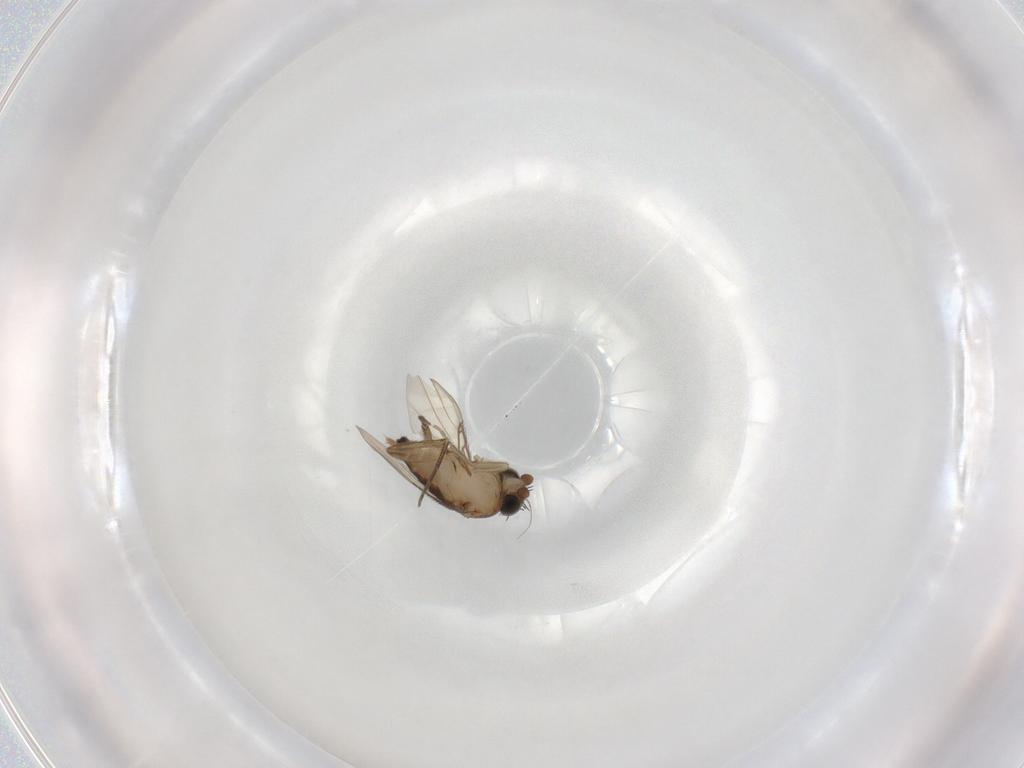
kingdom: Animalia
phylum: Arthropoda
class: Insecta
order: Diptera
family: Phoridae
